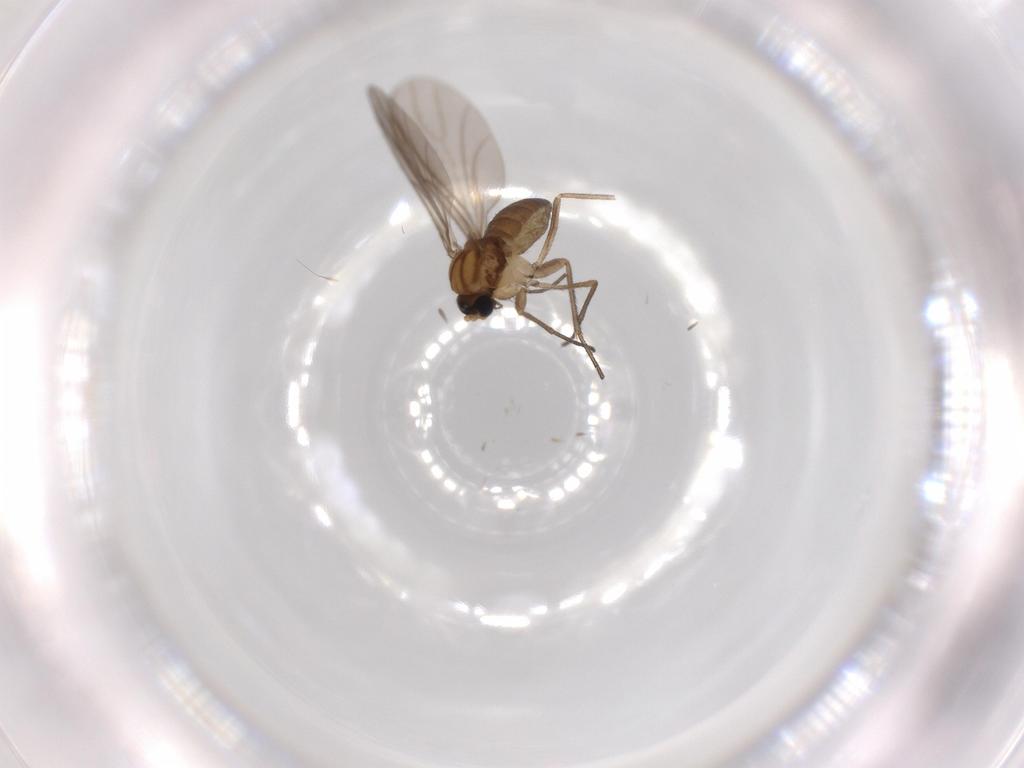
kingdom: Animalia
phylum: Arthropoda
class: Insecta
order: Diptera
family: Sciaridae
